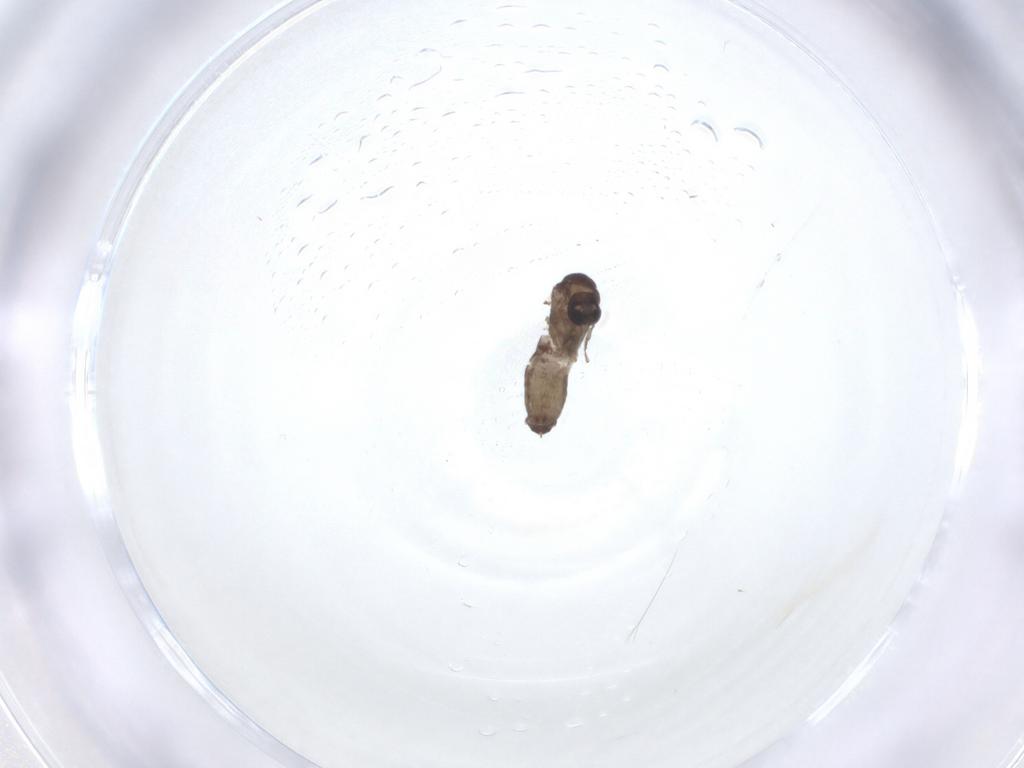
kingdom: Animalia
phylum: Arthropoda
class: Insecta
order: Diptera
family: Psychodidae
